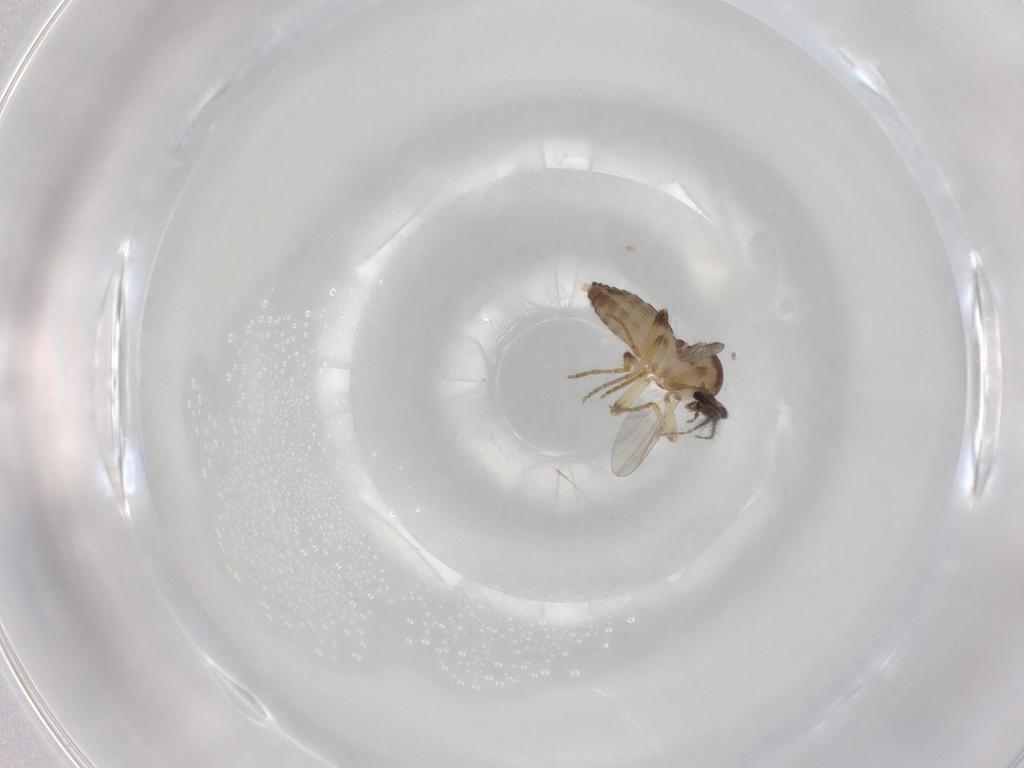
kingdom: Animalia
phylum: Arthropoda
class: Insecta
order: Diptera
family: Ceratopogonidae
